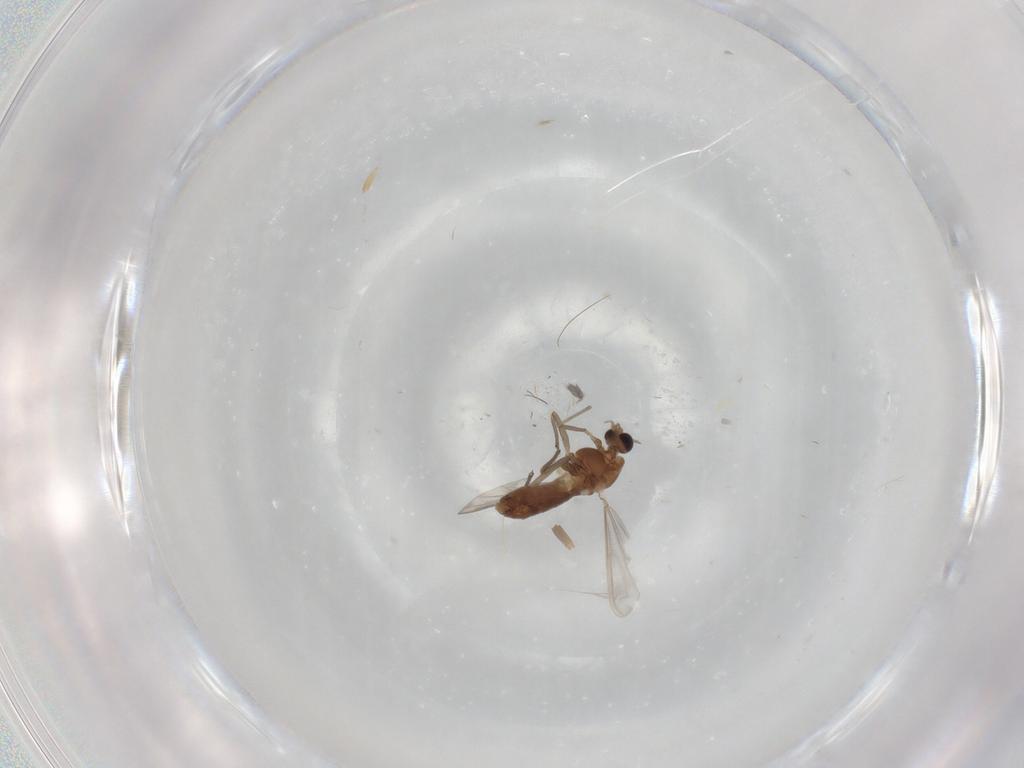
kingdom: Animalia
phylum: Arthropoda
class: Insecta
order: Diptera
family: Chironomidae
